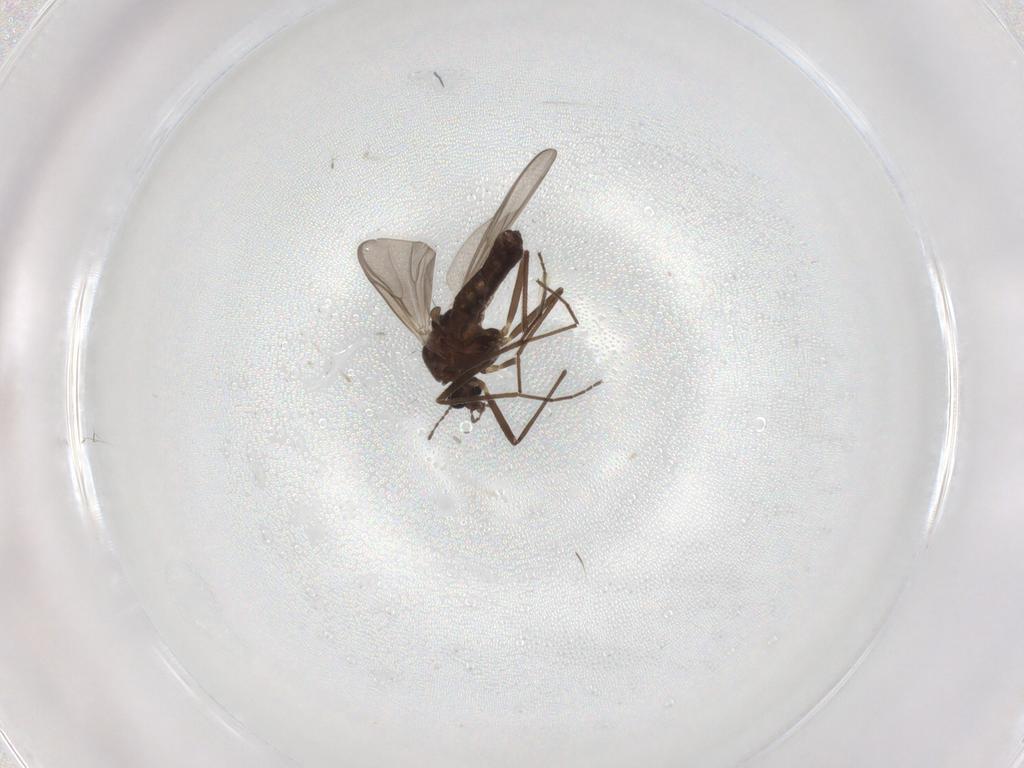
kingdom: Animalia
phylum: Arthropoda
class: Insecta
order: Diptera
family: Chironomidae
